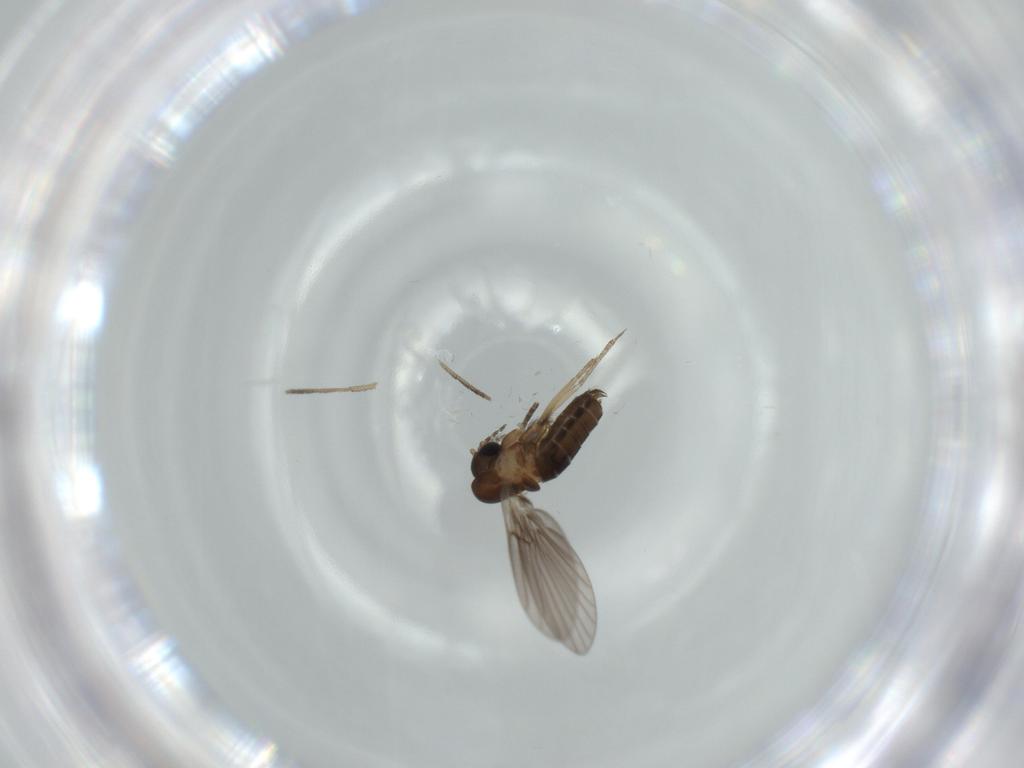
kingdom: Animalia
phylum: Arthropoda
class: Insecta
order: Diptera
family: Psychodidae
